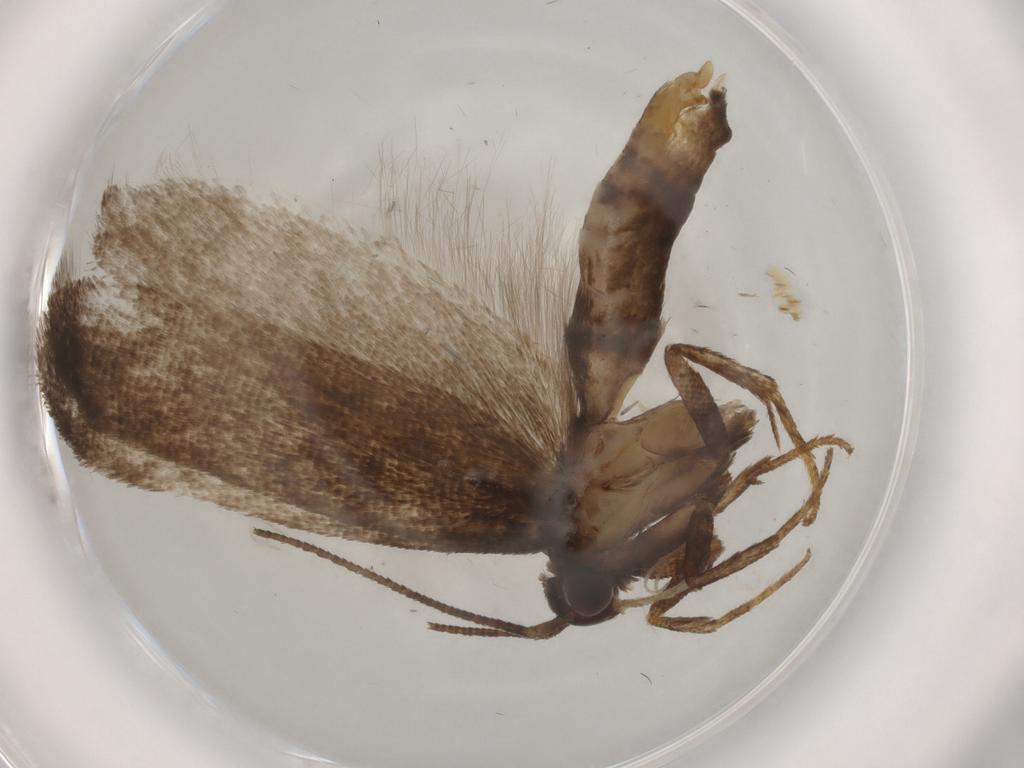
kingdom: Animalia
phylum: Arthropoda
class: Insecta
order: Lepidoptera
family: Gelechiidae
